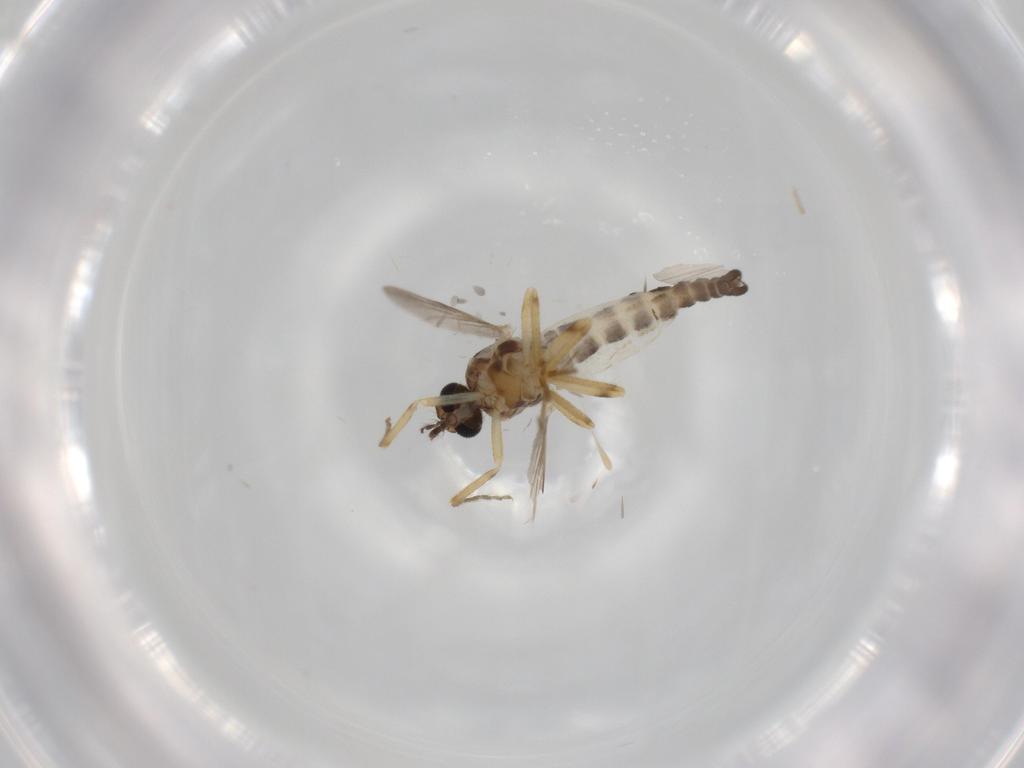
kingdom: Animalia
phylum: Arthropoda
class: Insecta
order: Diptera
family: Ceratopogonidae
